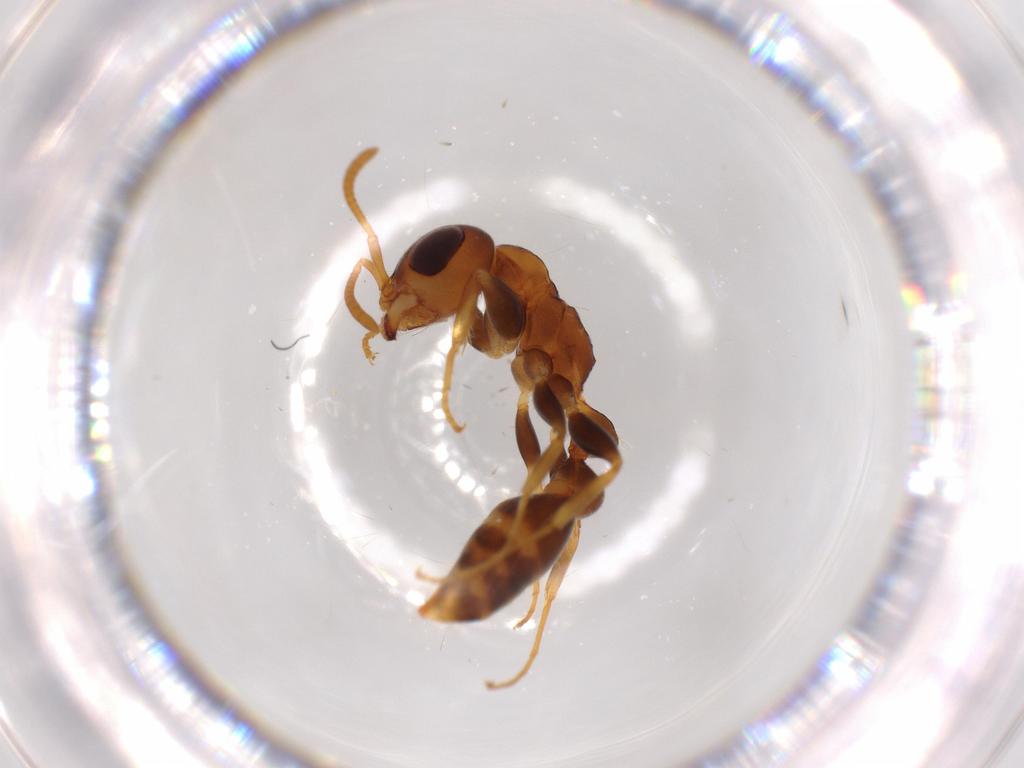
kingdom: Animalia
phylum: Arthropoda
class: Insecta
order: Hymenoptera
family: Formicidae
